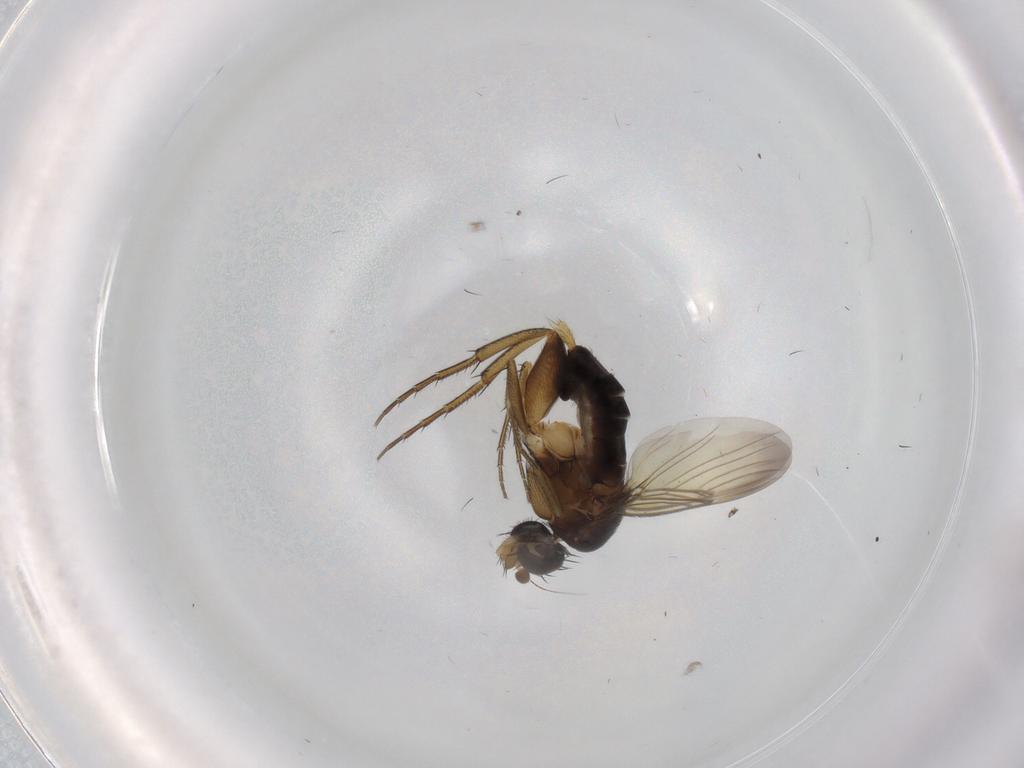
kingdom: Animalia
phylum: Arthropoda
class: Insecta
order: Diptera
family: Phoridae
